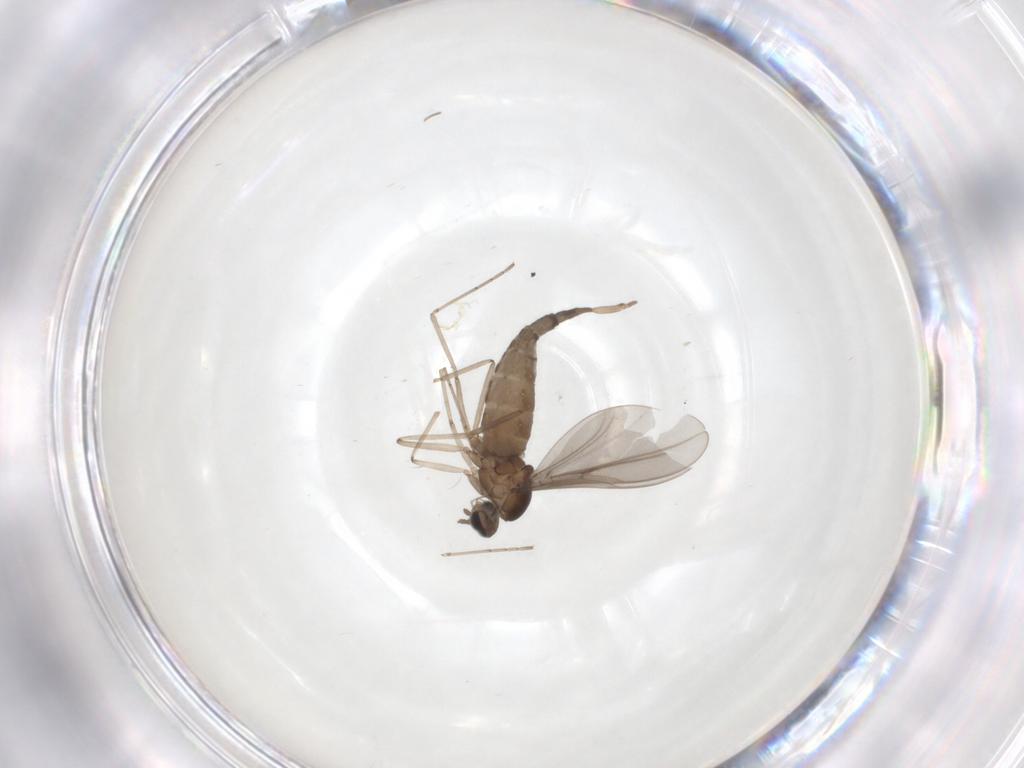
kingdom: Animalia
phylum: Arthropoda
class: Insecta
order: Diptera
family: Cecidomyiidae
